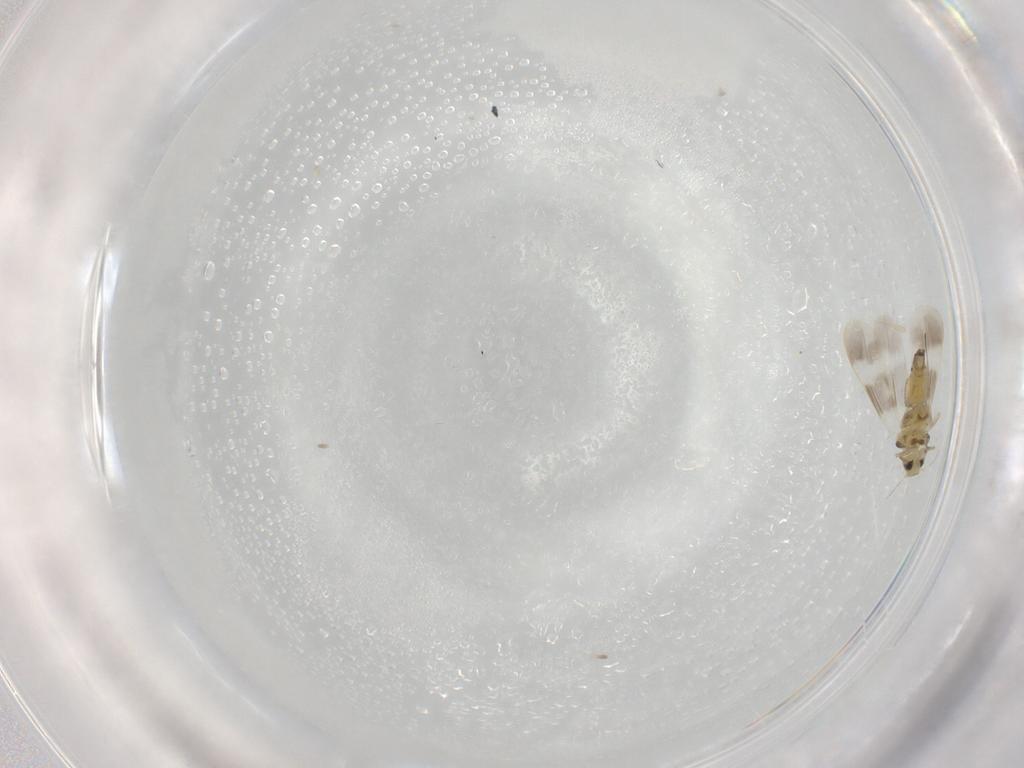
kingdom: Animalia
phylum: Arthropoda
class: Insecta
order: Hemiptera
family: Aleyrodidae
